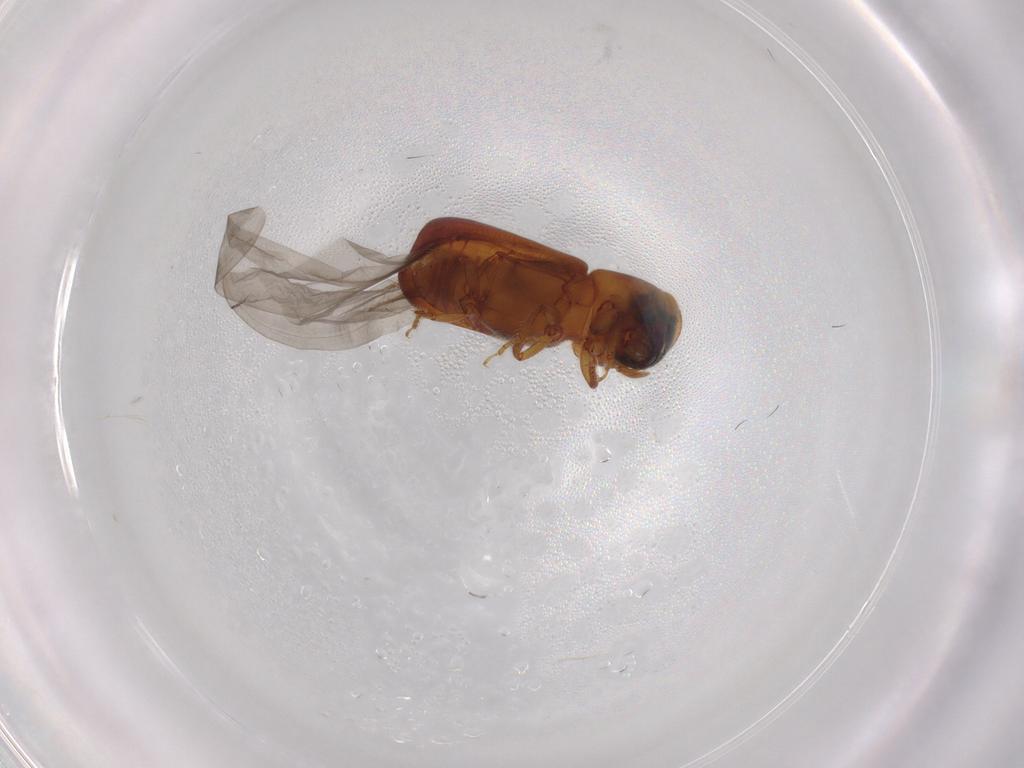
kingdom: Animalia
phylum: Arthropoda
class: Insecta
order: Coleoptera
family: Curculionidae
